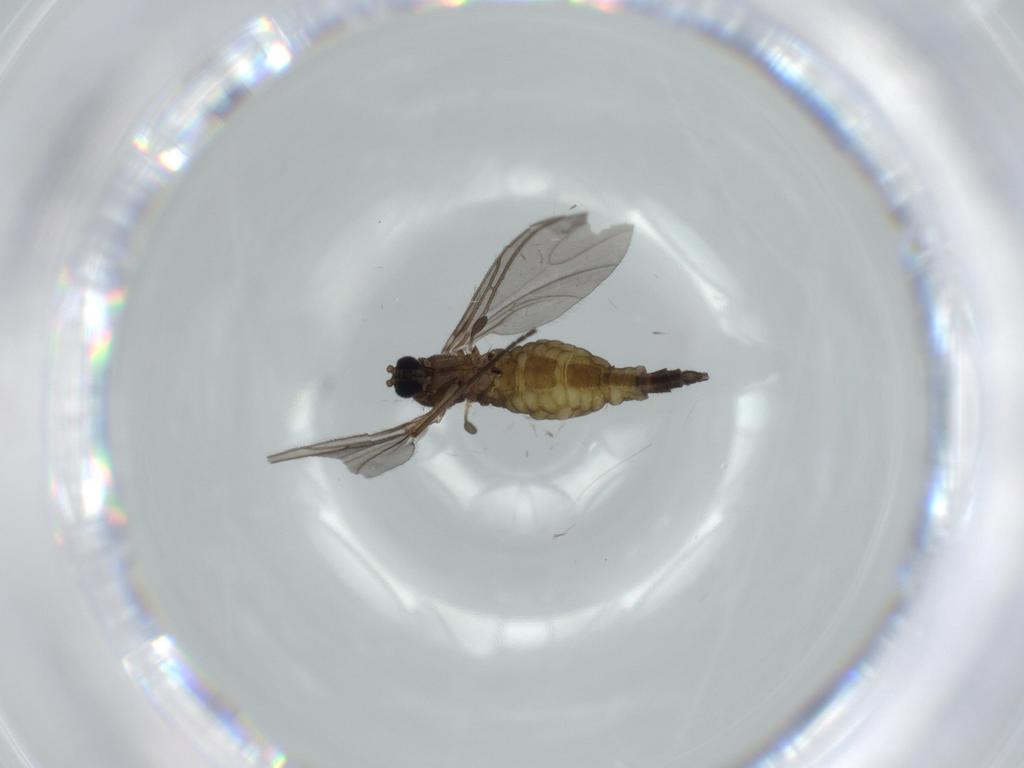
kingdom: Animalia
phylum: Arthropoda
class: Insecta
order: Diptera
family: Sciaridae
